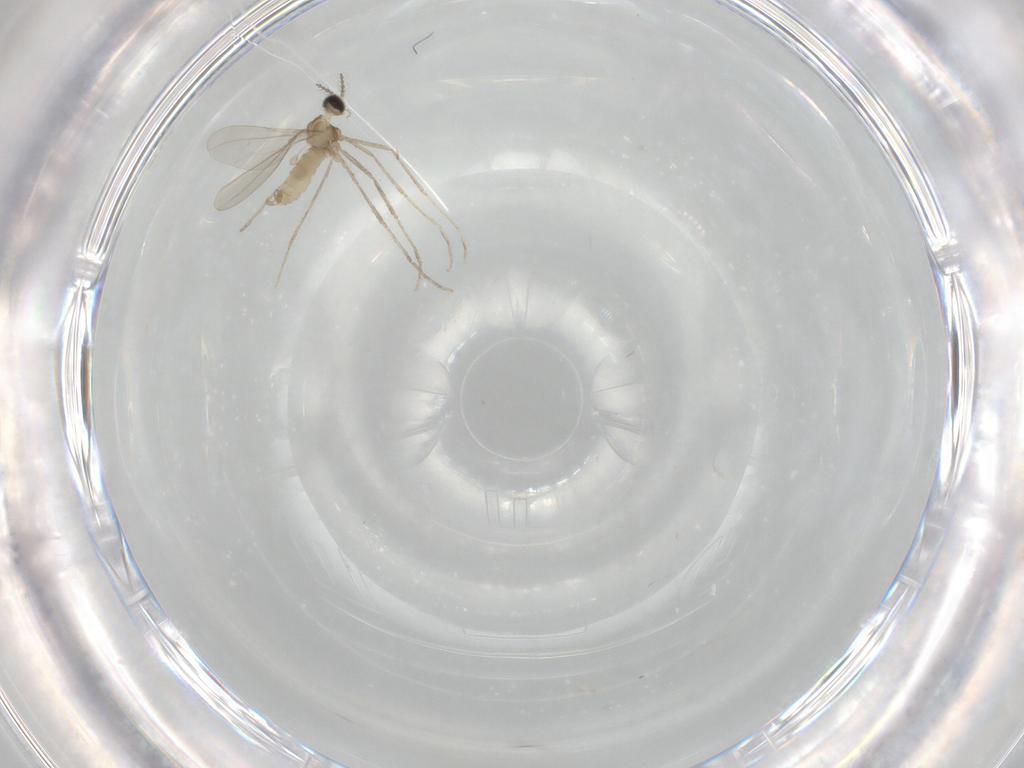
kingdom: Animalia
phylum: Arthropoda
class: Insecta
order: Diptera
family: Cecidomyiidae
